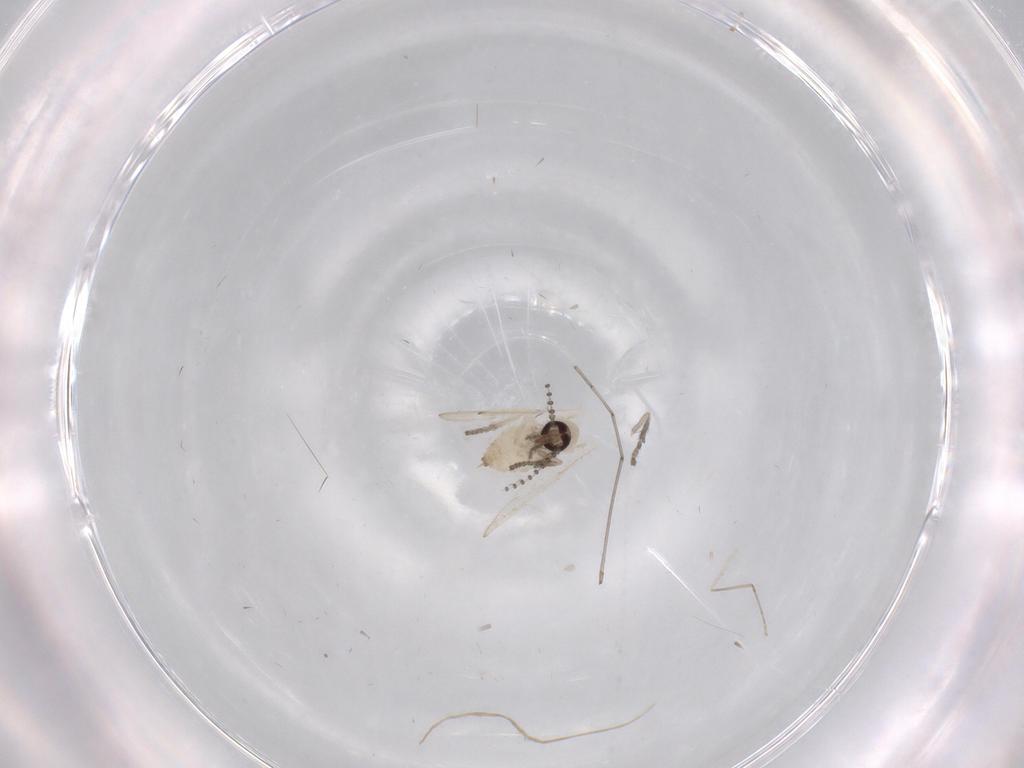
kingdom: Animalia
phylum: Arthropoda
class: Insecta
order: Diptera
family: Psychodidae
